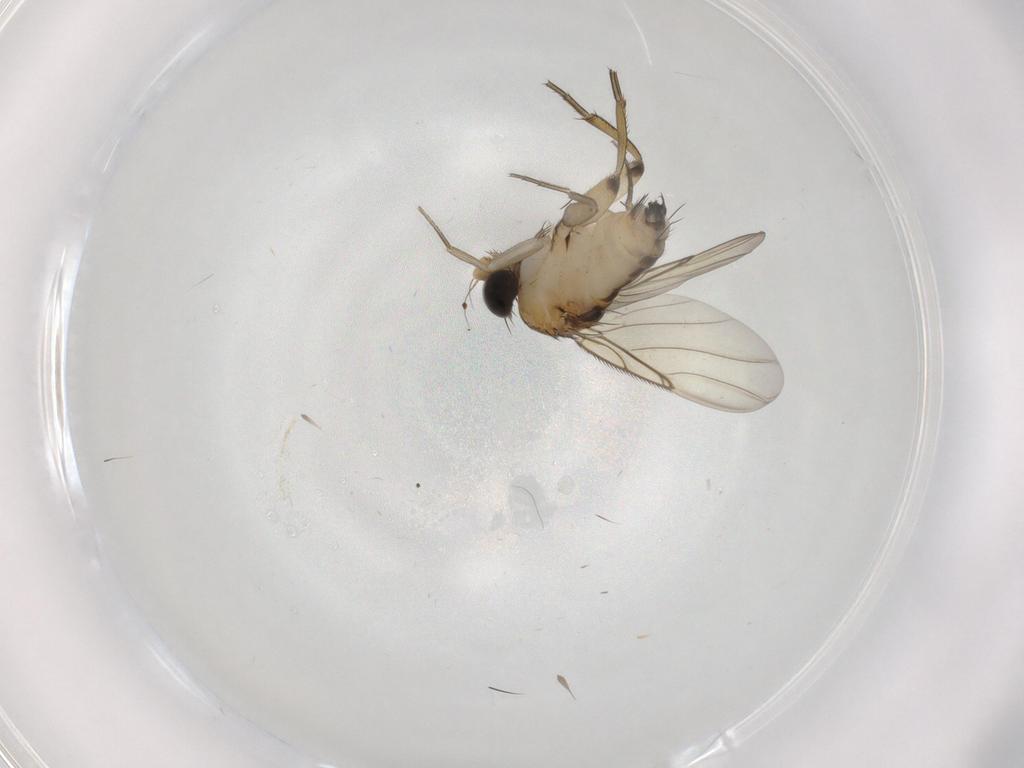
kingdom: Animalia
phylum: Arthropoda
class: Insecta
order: Diptera
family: Phoridae
